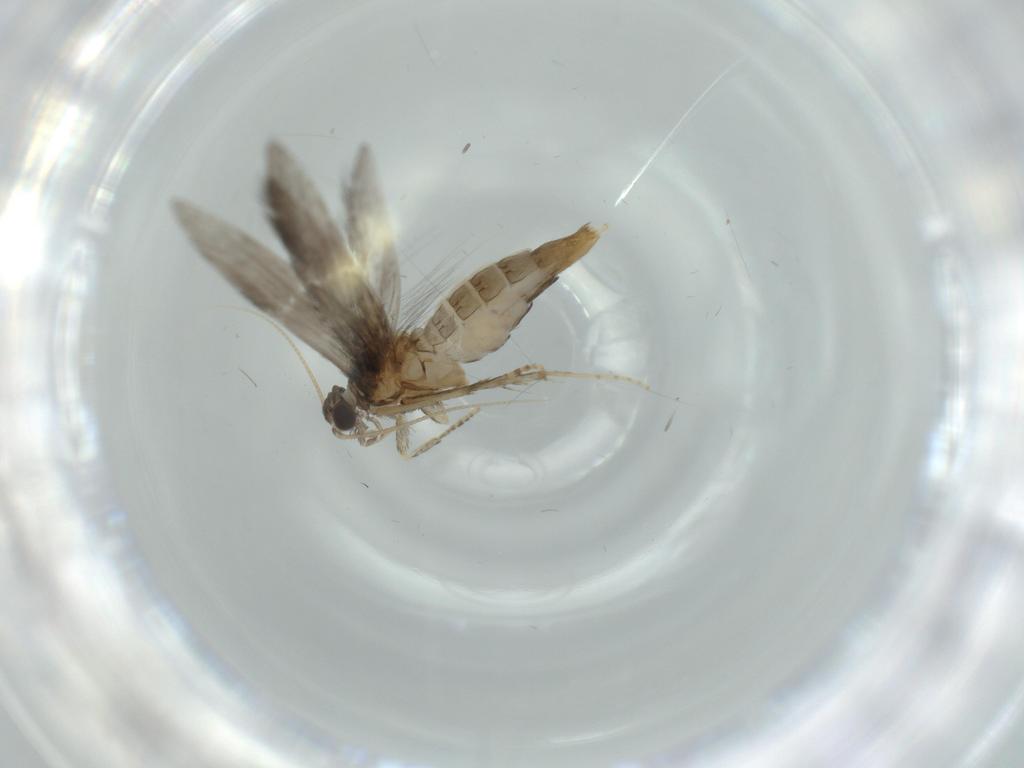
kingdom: Animalia
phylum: Arthropoda
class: Insecta
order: Trichoptera
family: Hydroptilidae
